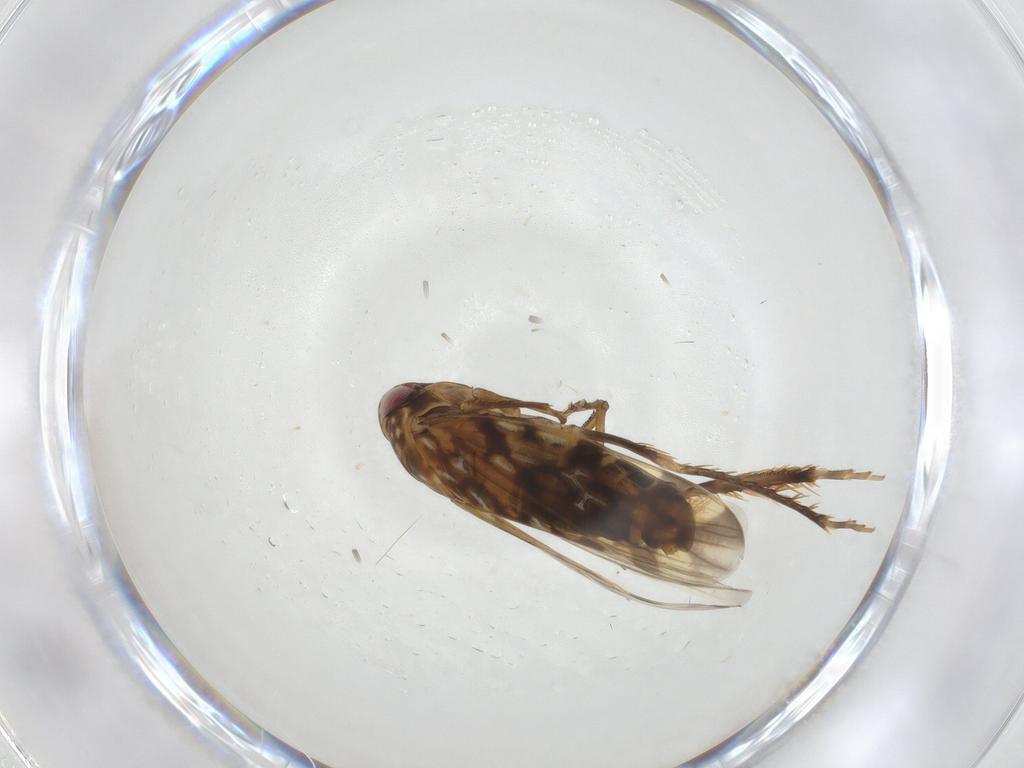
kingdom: Animalia
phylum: Arthropoda
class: Insecta
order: Hemiptera
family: Cicadellidae
